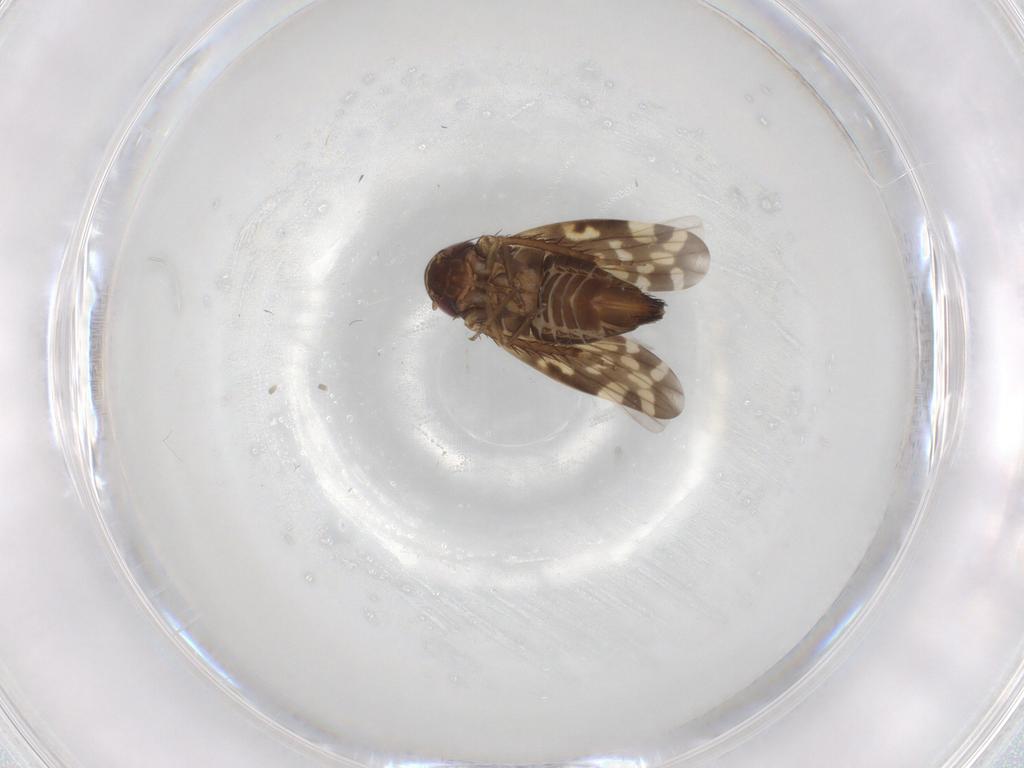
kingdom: Animalia
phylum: Arthropoda
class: Insecta
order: Hemiptera
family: Cicadellidae
